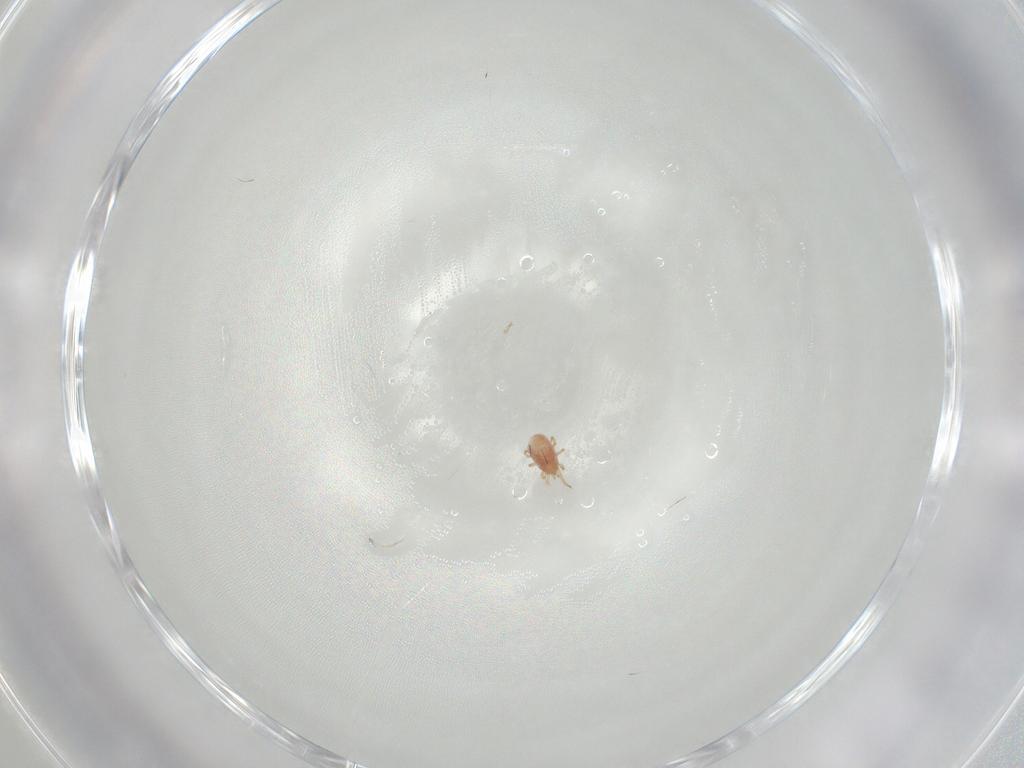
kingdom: Animalia
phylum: Arthropoda
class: Arachnida
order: Mesostigmata
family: Phytoseiidae
